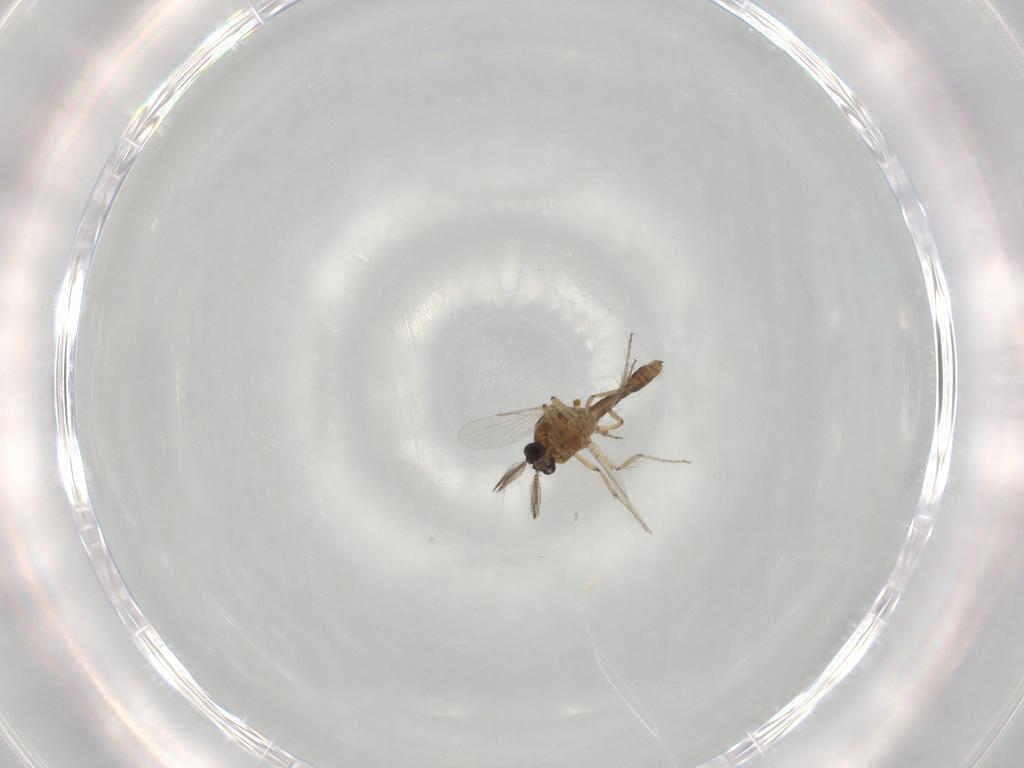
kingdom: Animalia
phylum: Arthropoda
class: Insecta
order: Diptera
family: Ceratopogonidae
